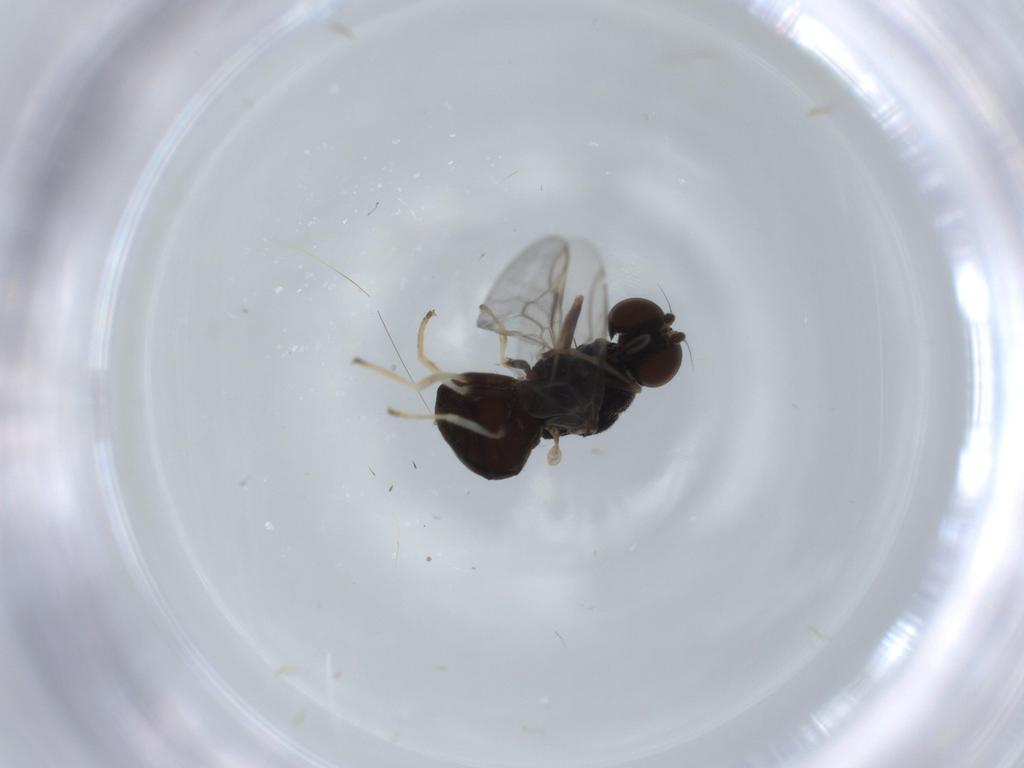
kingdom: Animalia
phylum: Arthropoda
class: Insecta
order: Diptera
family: Stratiomyidae
